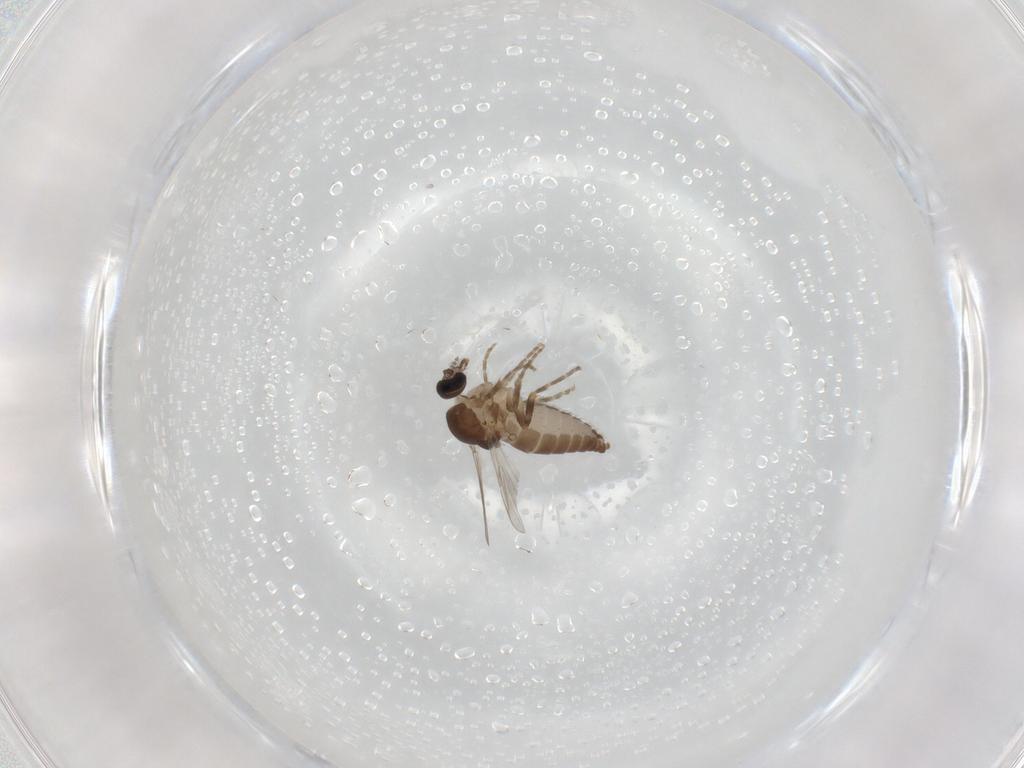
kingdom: Animalia
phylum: Arthropoda
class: Insecta
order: Diptera
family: Ceratopogonidae
